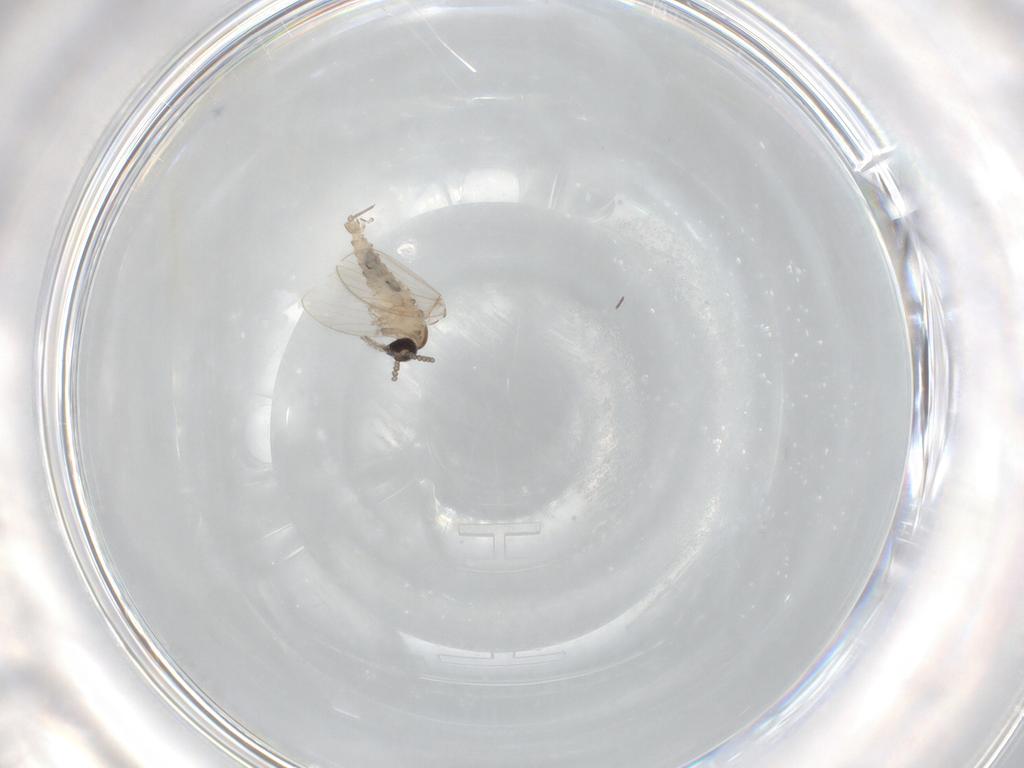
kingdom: Animalia
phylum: Arthropoda
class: Insecta
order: Diptera
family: Psychodidae
